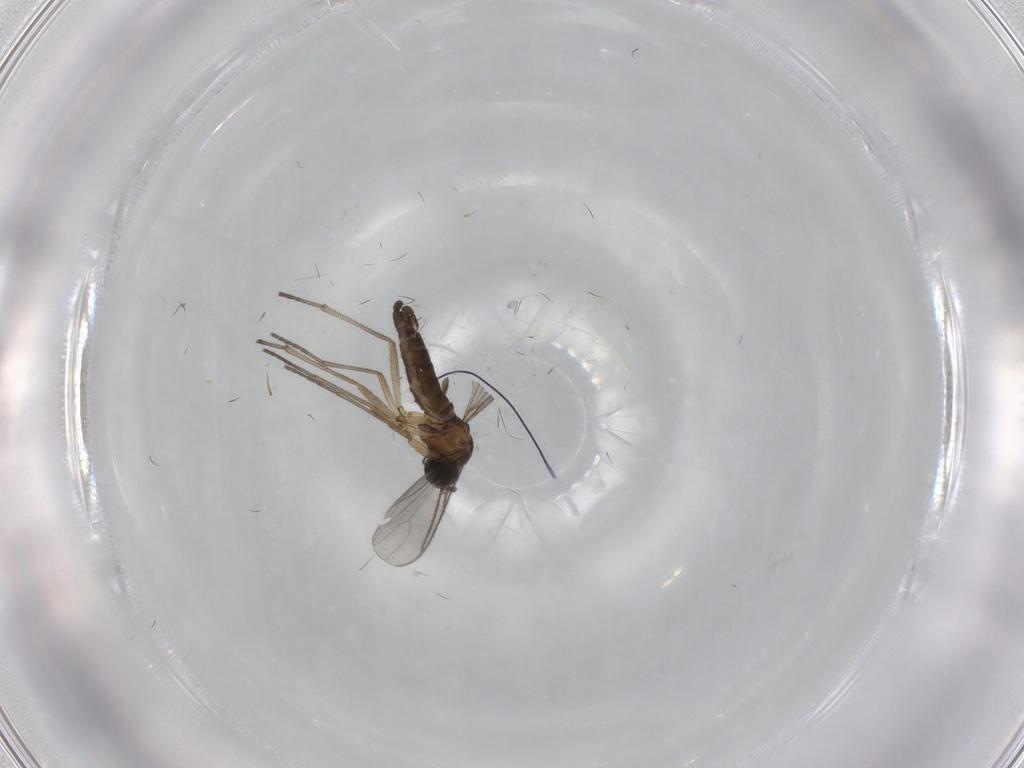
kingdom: Animalia
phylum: Arthropoda
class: Insecta
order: Diptera
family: Sciaridae
